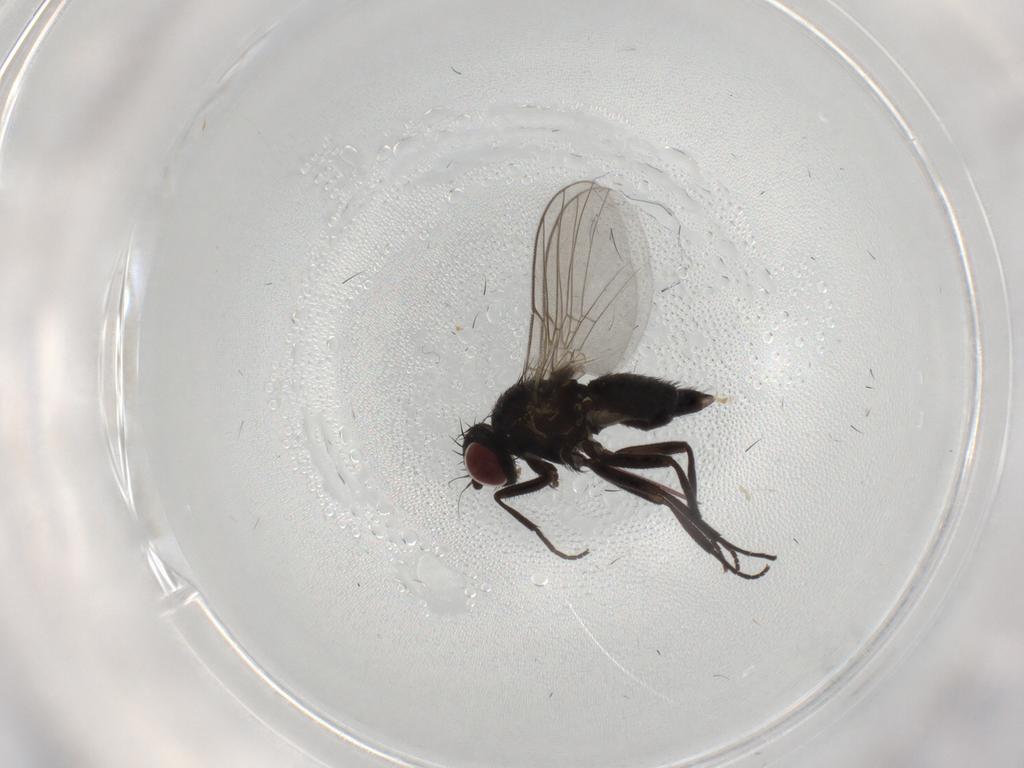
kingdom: Animalia
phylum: Arthropoda
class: Insecta
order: Diptera
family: Agromyzidae
